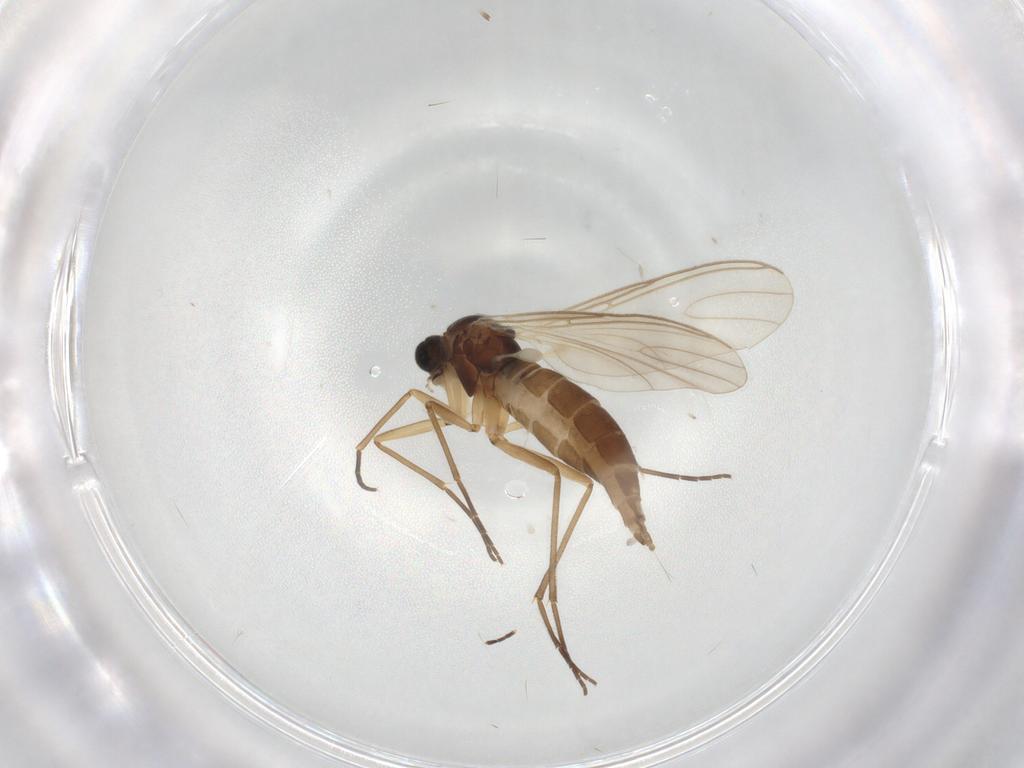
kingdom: Animalia
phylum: Arthropoda
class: Insecta
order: Diptera
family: Sciaridae
